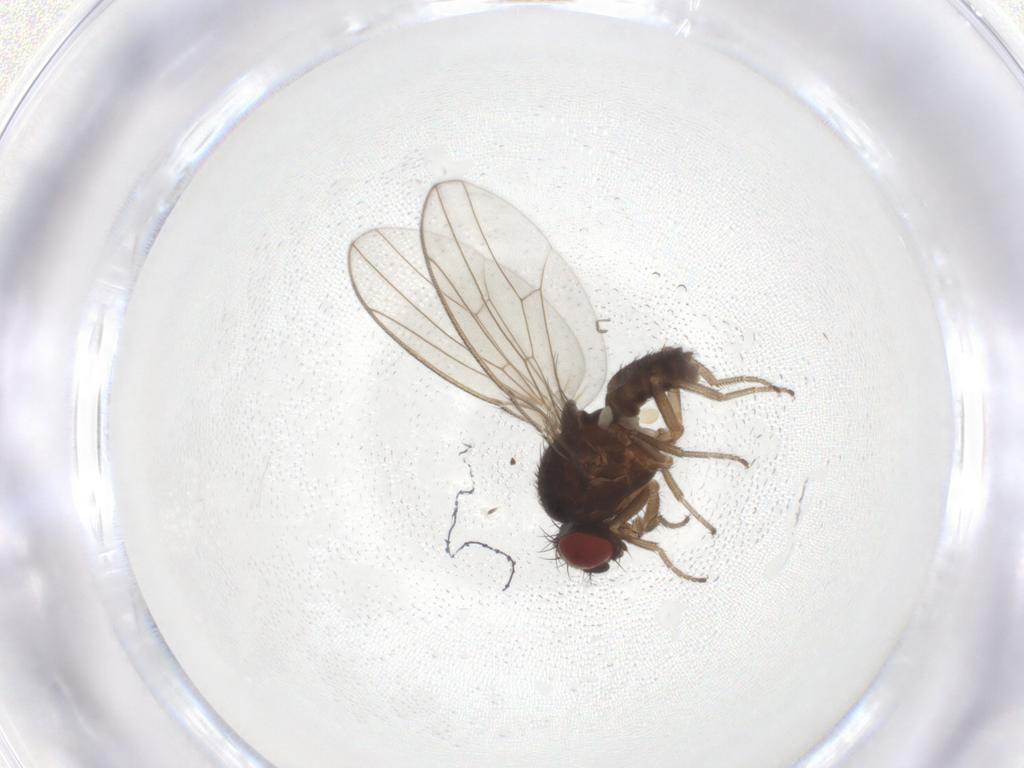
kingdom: Animalia
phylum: Arthropoda
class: Insecta
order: Diptera
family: Drosophilidae
